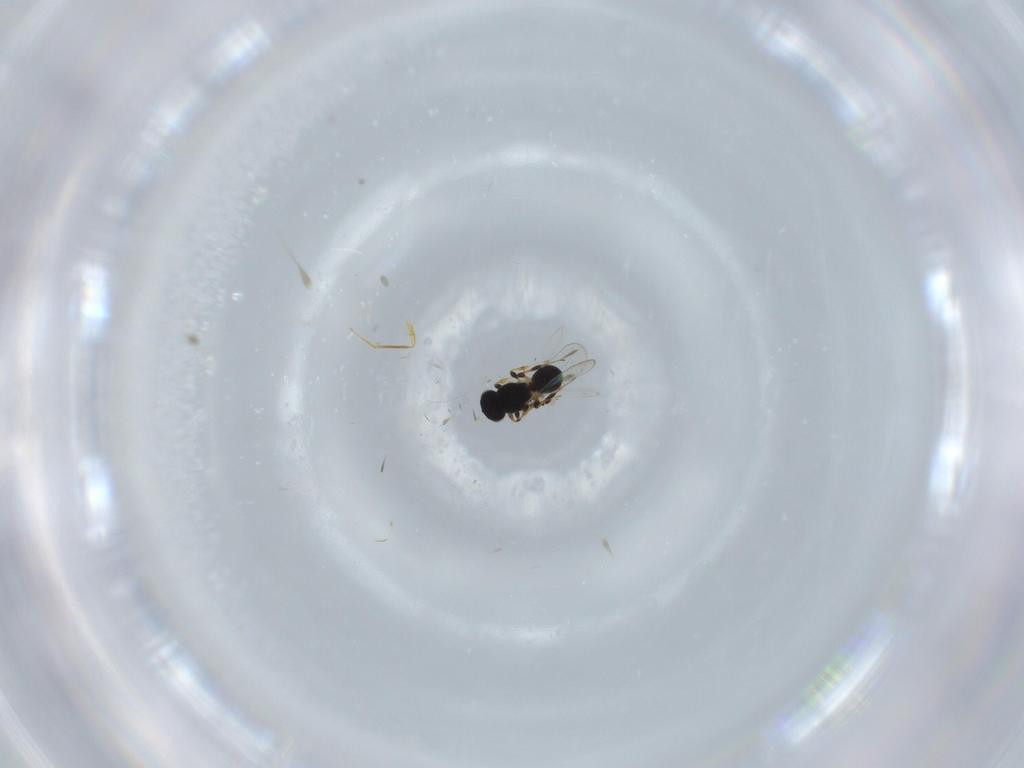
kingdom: Animalia
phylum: Arthropoda
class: Insecta
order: Hymenoptera
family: Mymaridae
